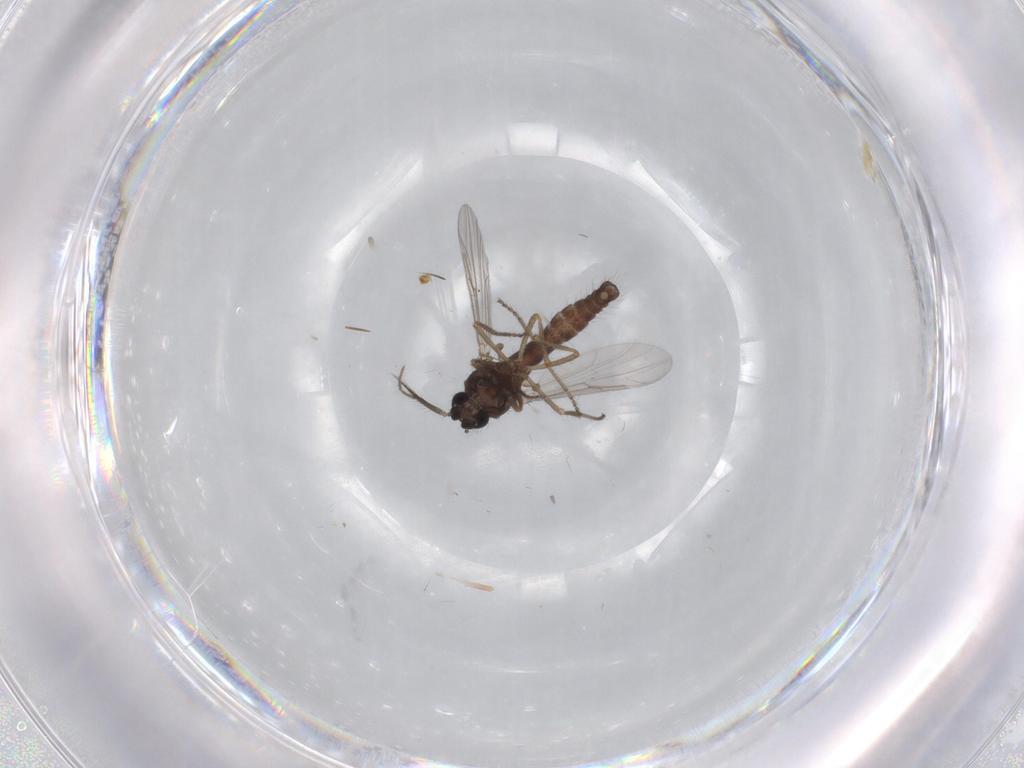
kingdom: Animalia
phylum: Arthropoda
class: Insecta
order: Diptera
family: Ceratopogonidae
